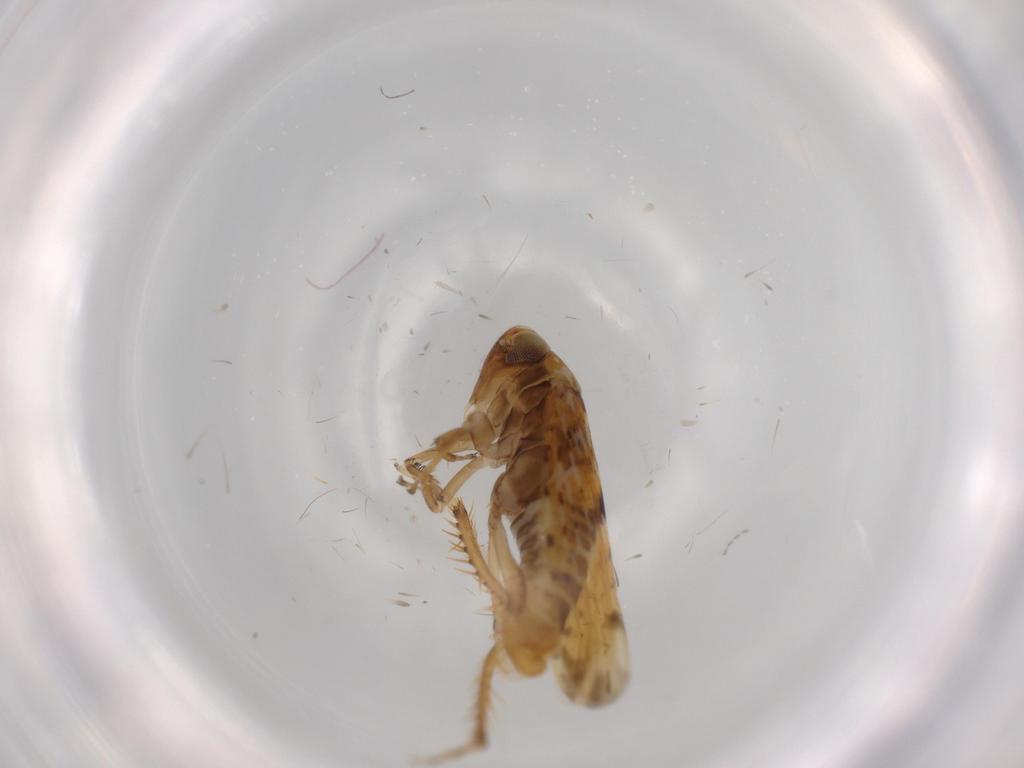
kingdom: Animalia
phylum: Arthropoda
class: Insecta
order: Hemiptera
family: Cicadellidae
